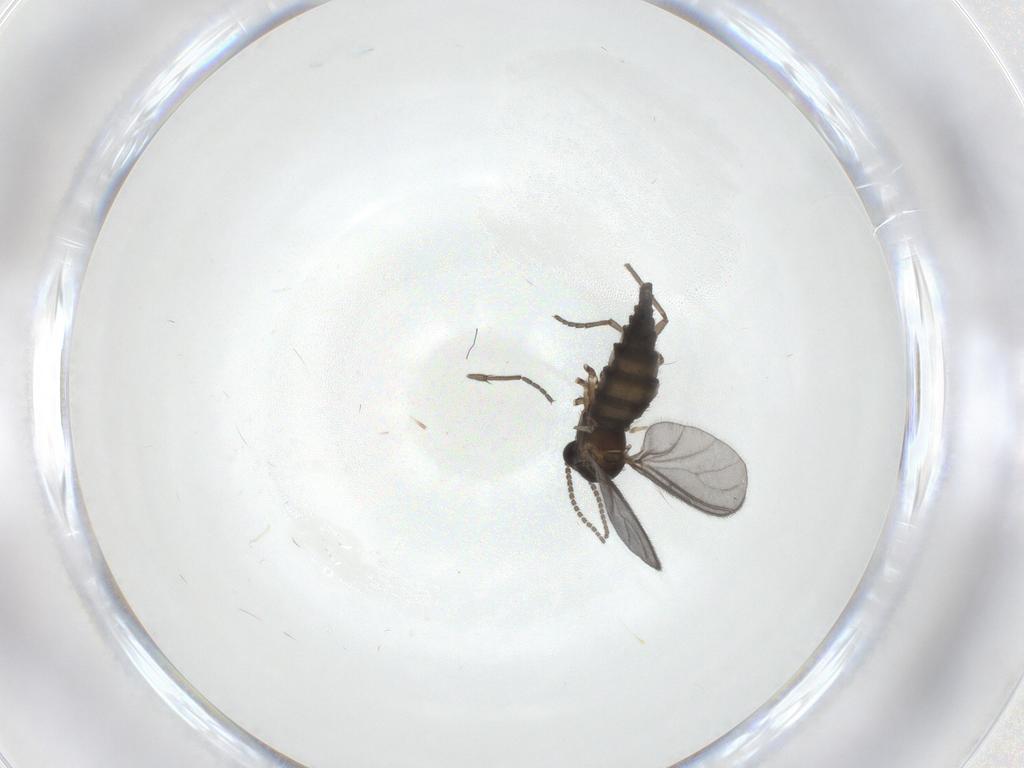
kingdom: Animalia
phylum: Arthropoda
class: Insecta
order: Diptera
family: Sciaridae
